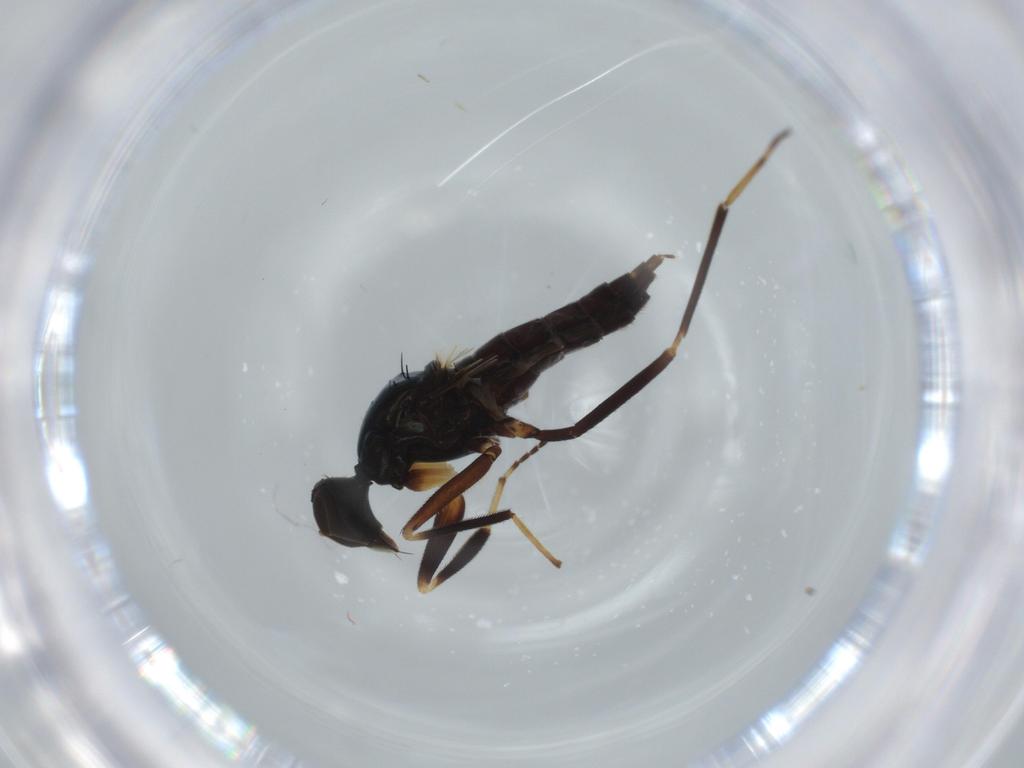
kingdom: Animalia
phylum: Arthropoda
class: Insecta
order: Diptera
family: Hybotidae
